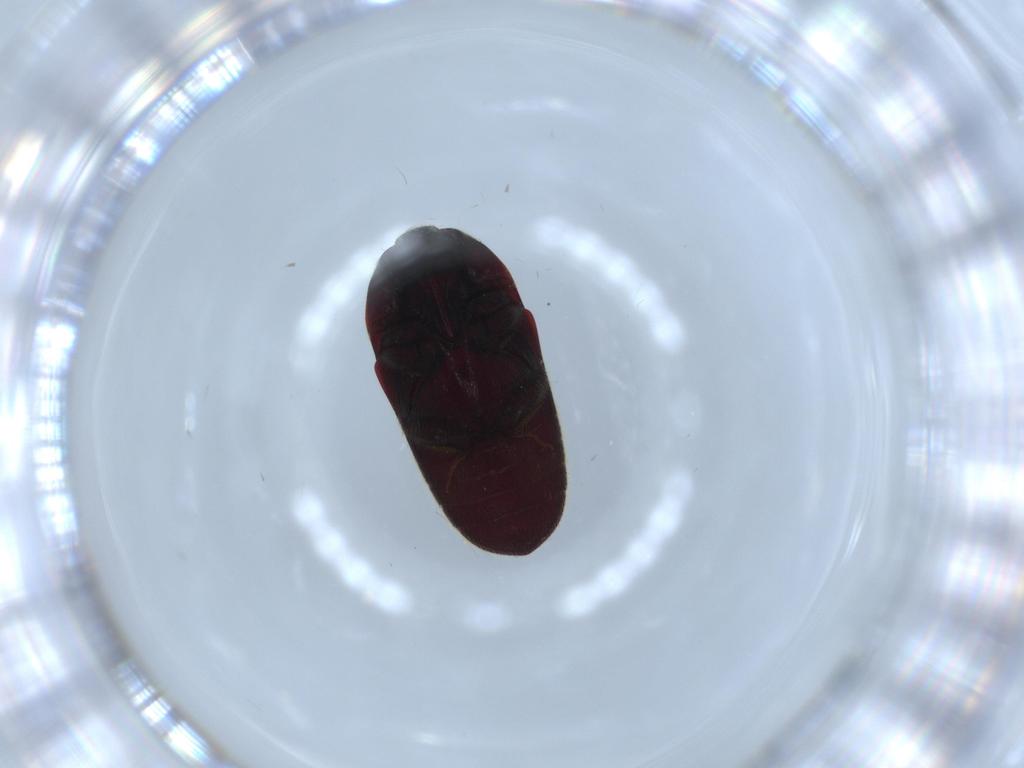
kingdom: Animalia
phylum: Arthropoda
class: Insecta
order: Coleoptera
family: Throscidae
